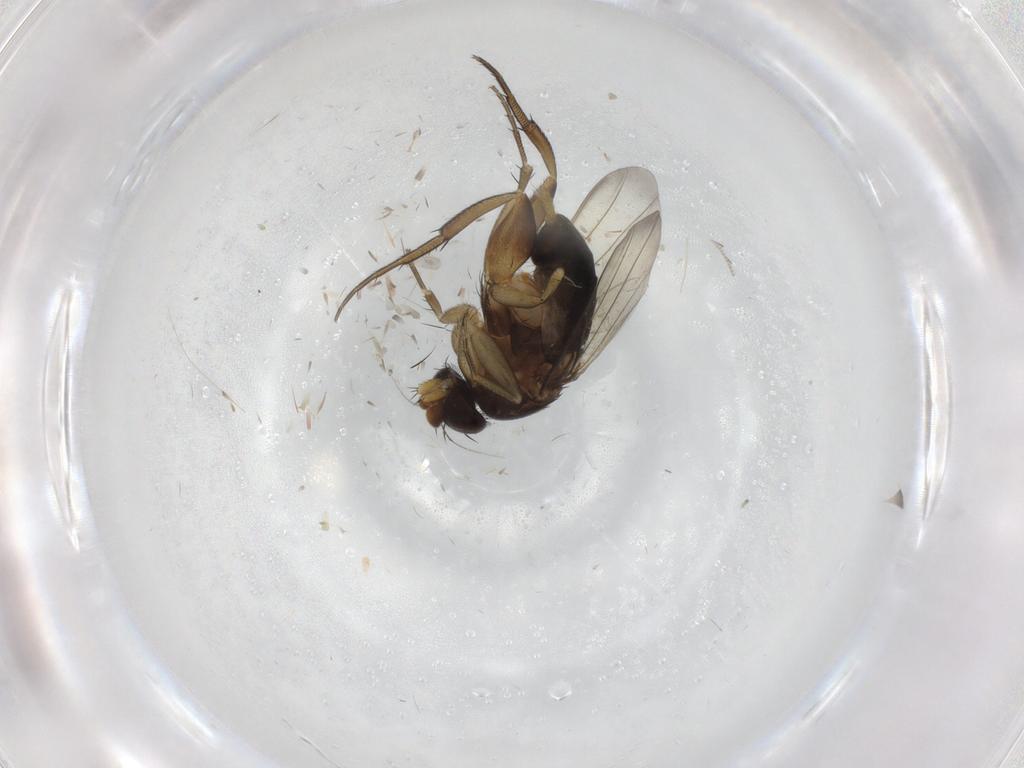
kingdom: Animalia
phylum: Arthropoda
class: Insecta
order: Diptera
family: Phoridae
